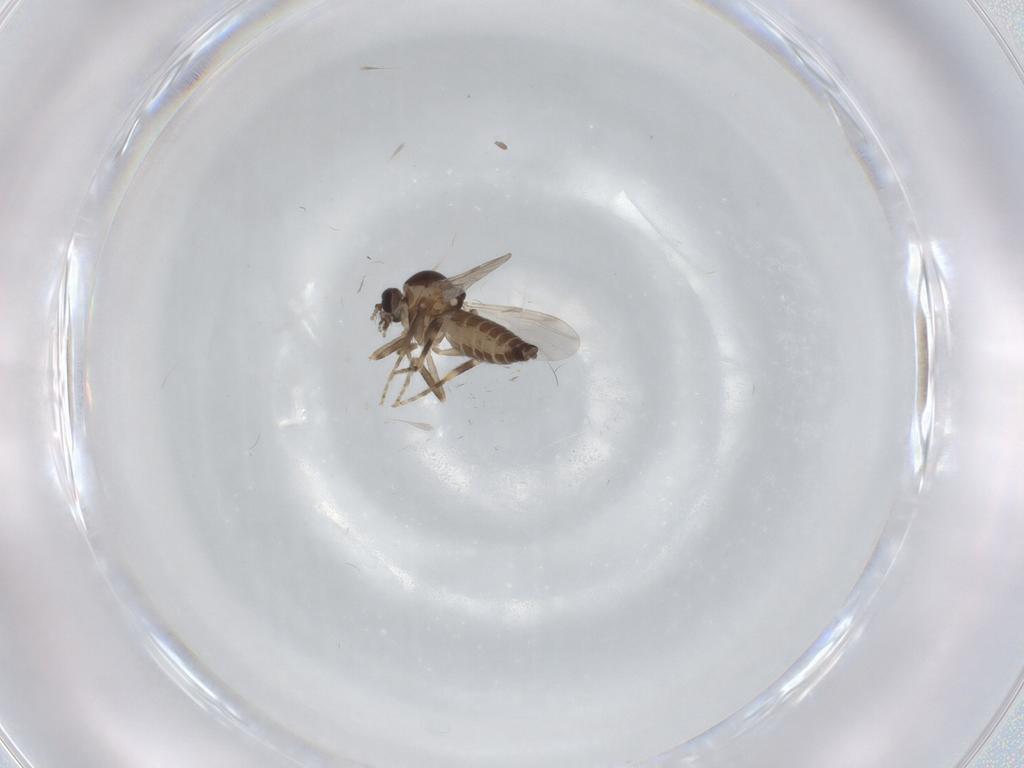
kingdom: Animalia
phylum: Arthropoda
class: Insecta
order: Diptera
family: Ceratopogonidae
